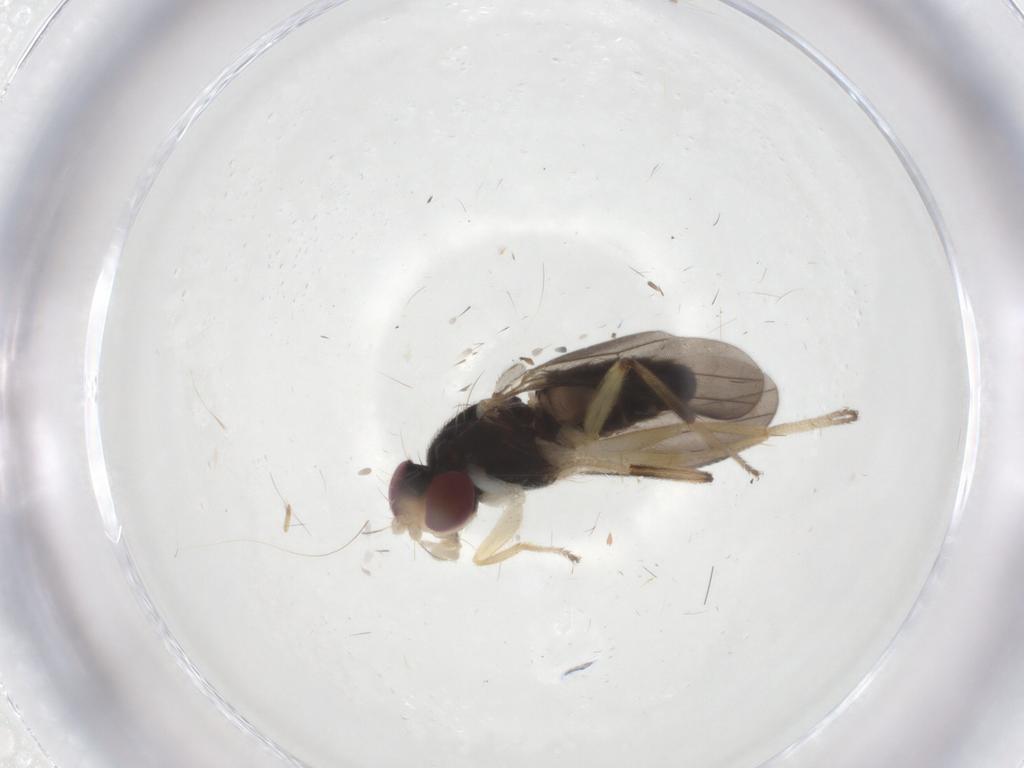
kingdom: Animalia
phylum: Arthropoda
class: Insecta
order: Diptera
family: Clusiidae
